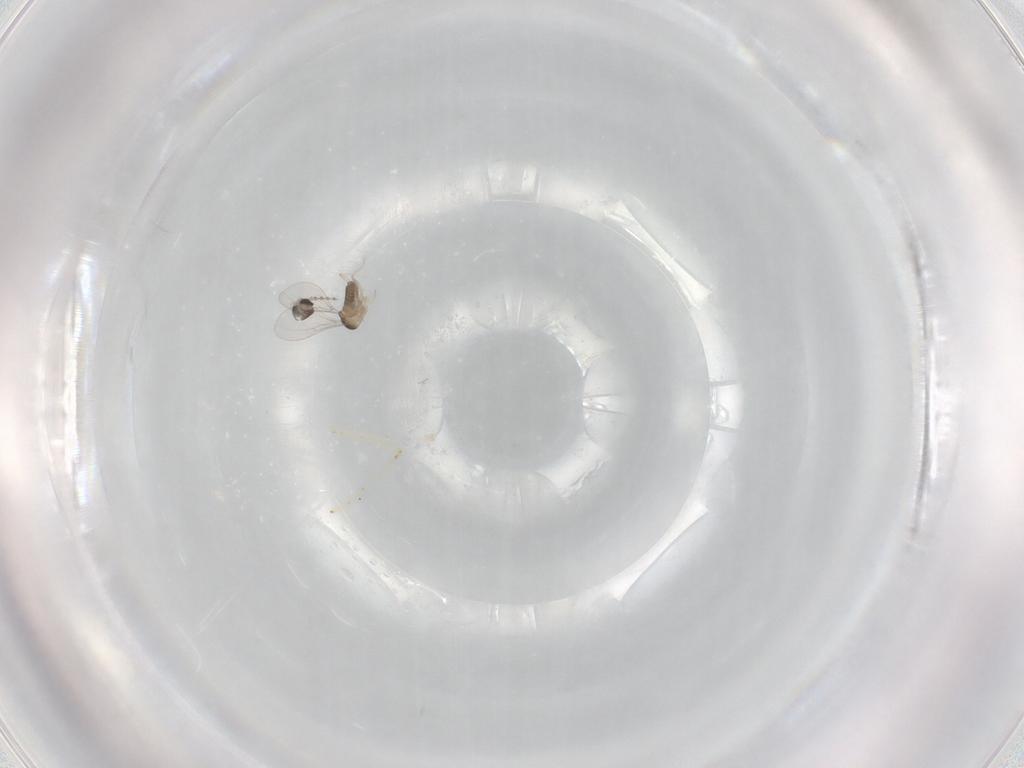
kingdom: Animalia
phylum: Arthropoda
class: Insecta
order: Diptera
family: Cecidomyiidae
